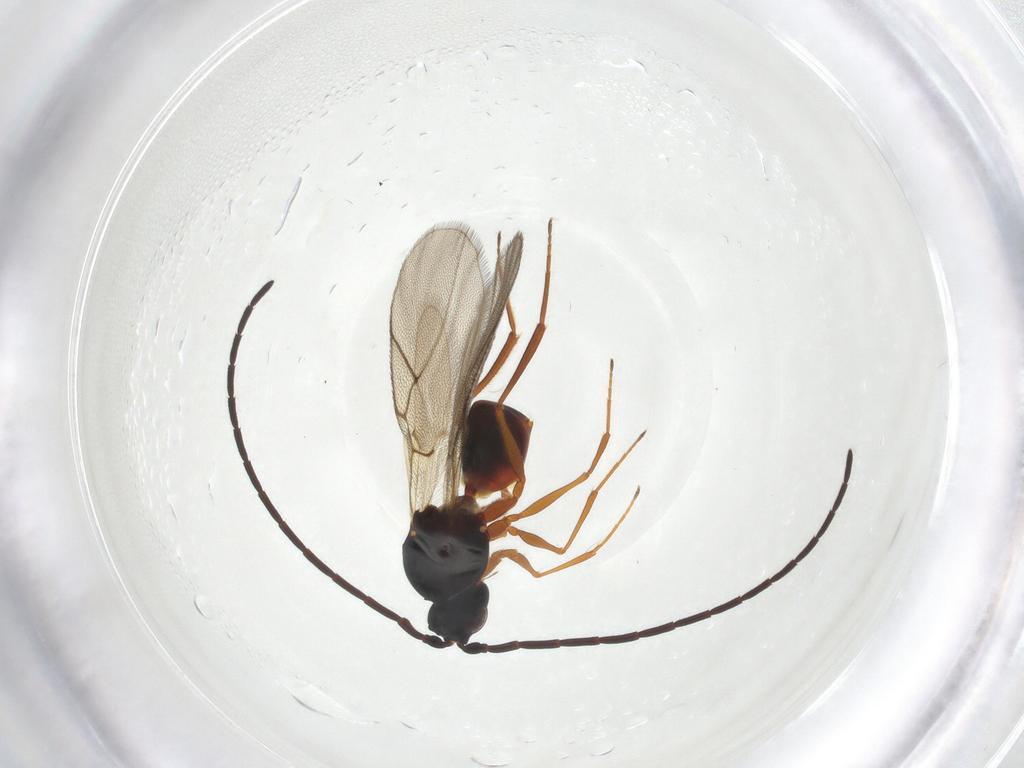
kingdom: Animalia
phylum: Arthropoda
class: Insecta
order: Hymenoptera
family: Figitidae
